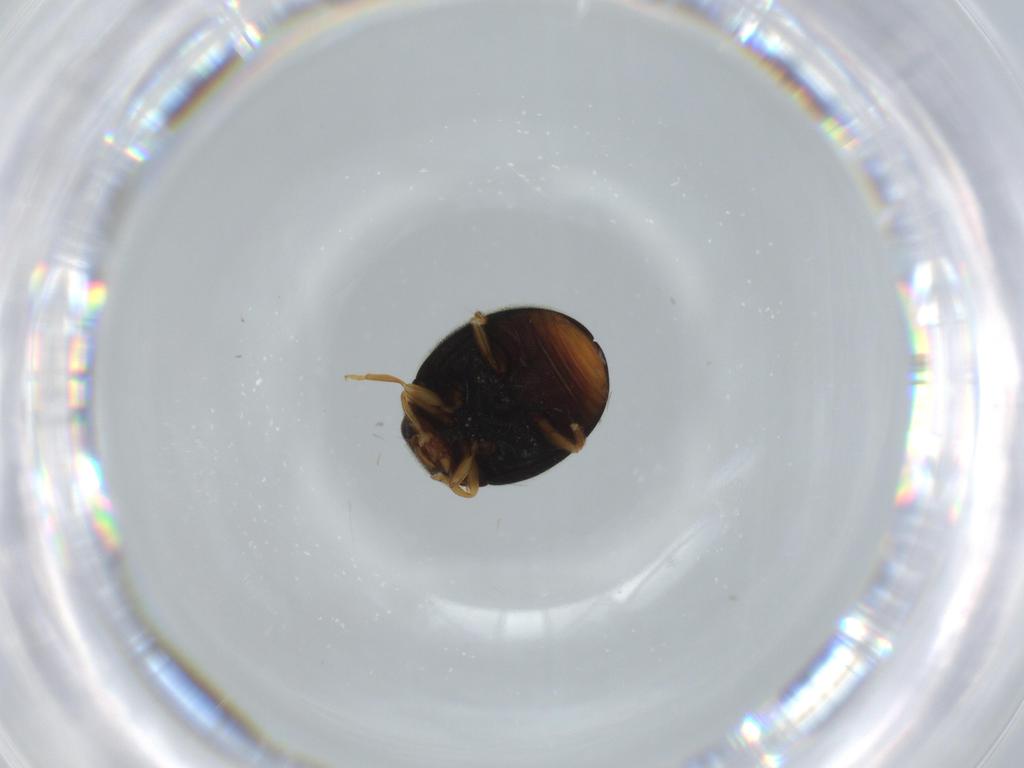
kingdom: Animalia
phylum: Arthropoda
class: Insecta
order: Coleoptera
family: Coccinellidae
